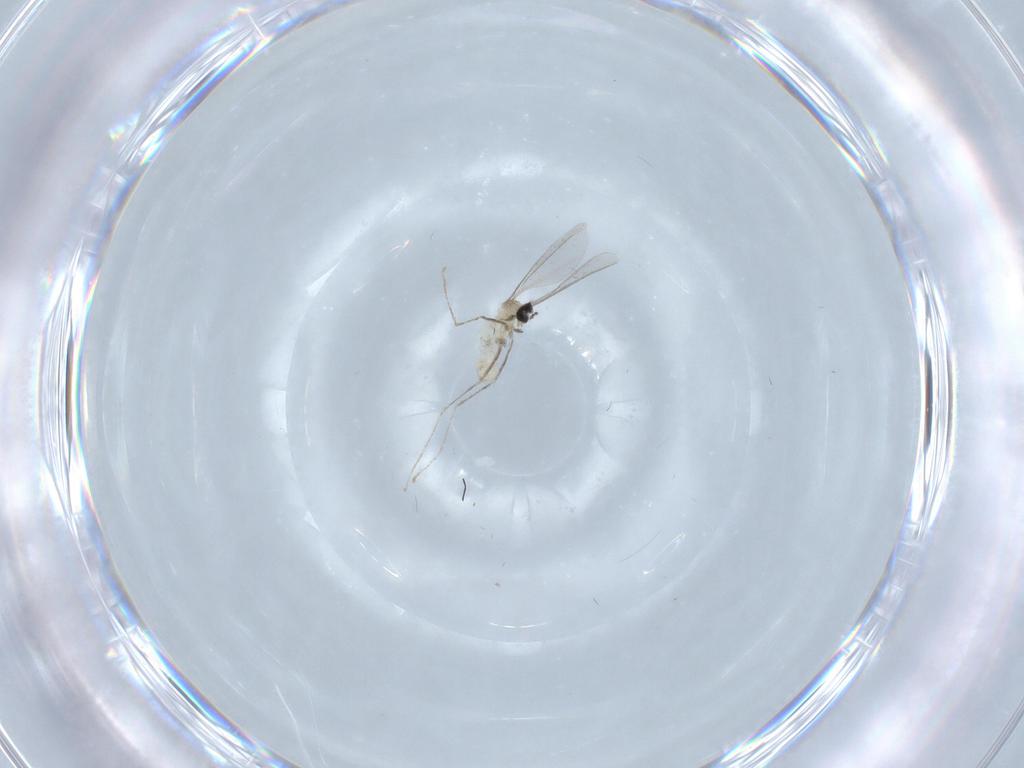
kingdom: Animalia
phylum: Arthropoda
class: Insecta
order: Diptera
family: Cecidomyiidae
